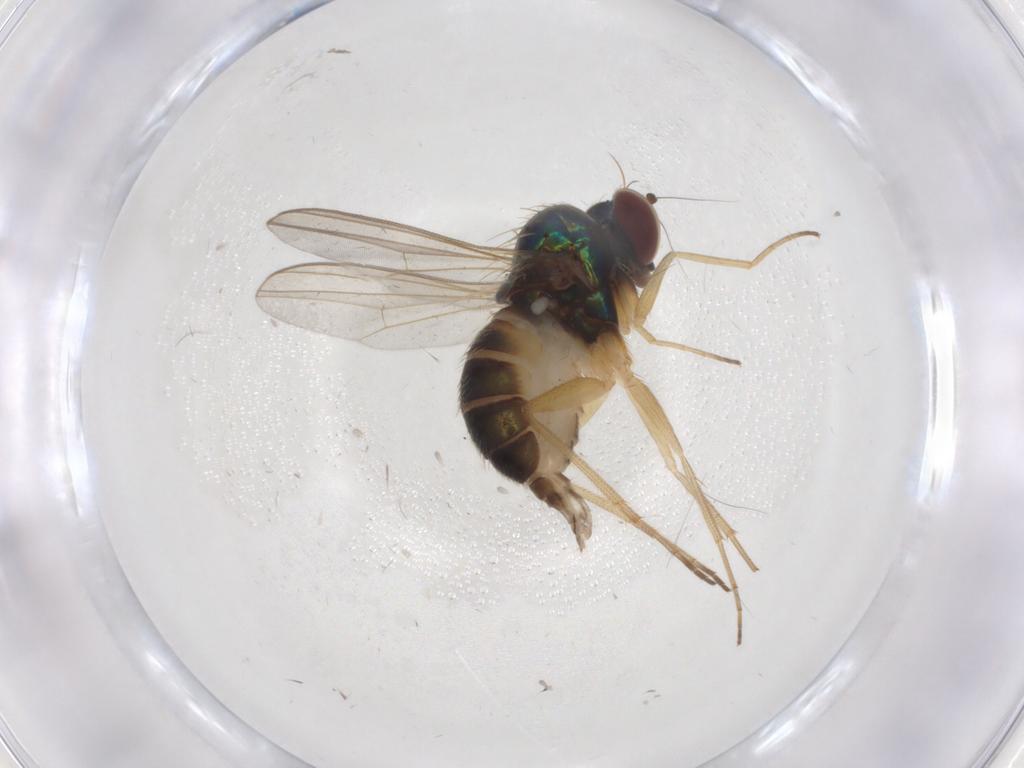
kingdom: Animalia
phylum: Arthropoda
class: Insecta
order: Diptera
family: Dolichopodidae
